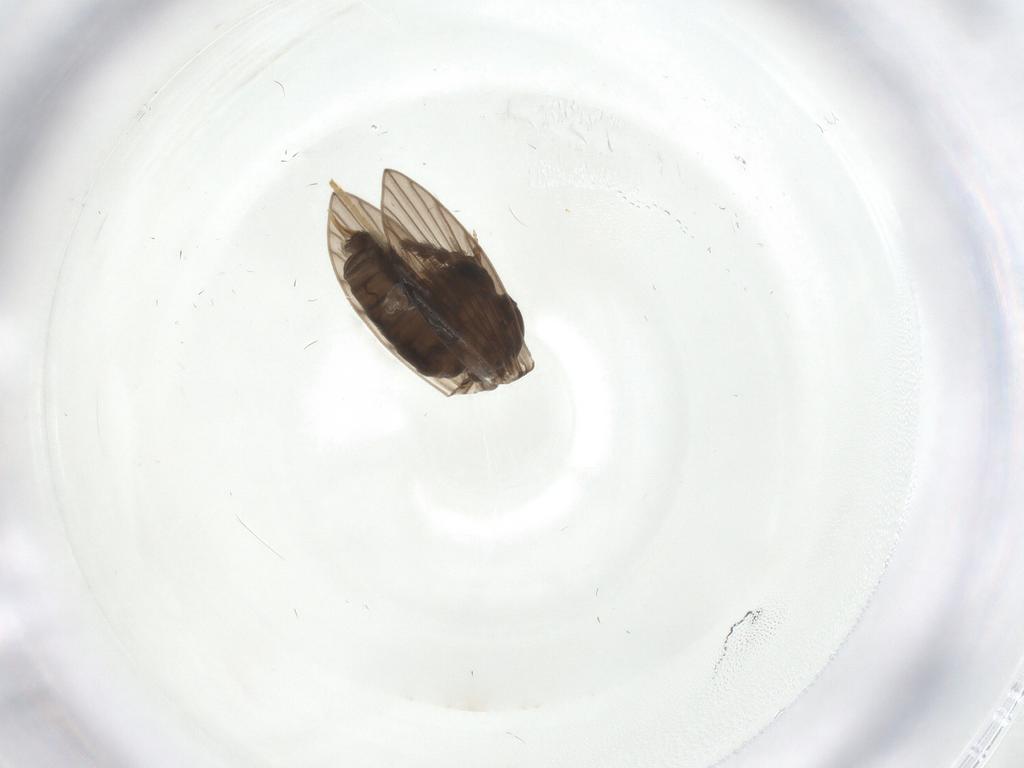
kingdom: Animalia
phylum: Arthropoda
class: Insecta
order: Diptera
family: Psychodidae
